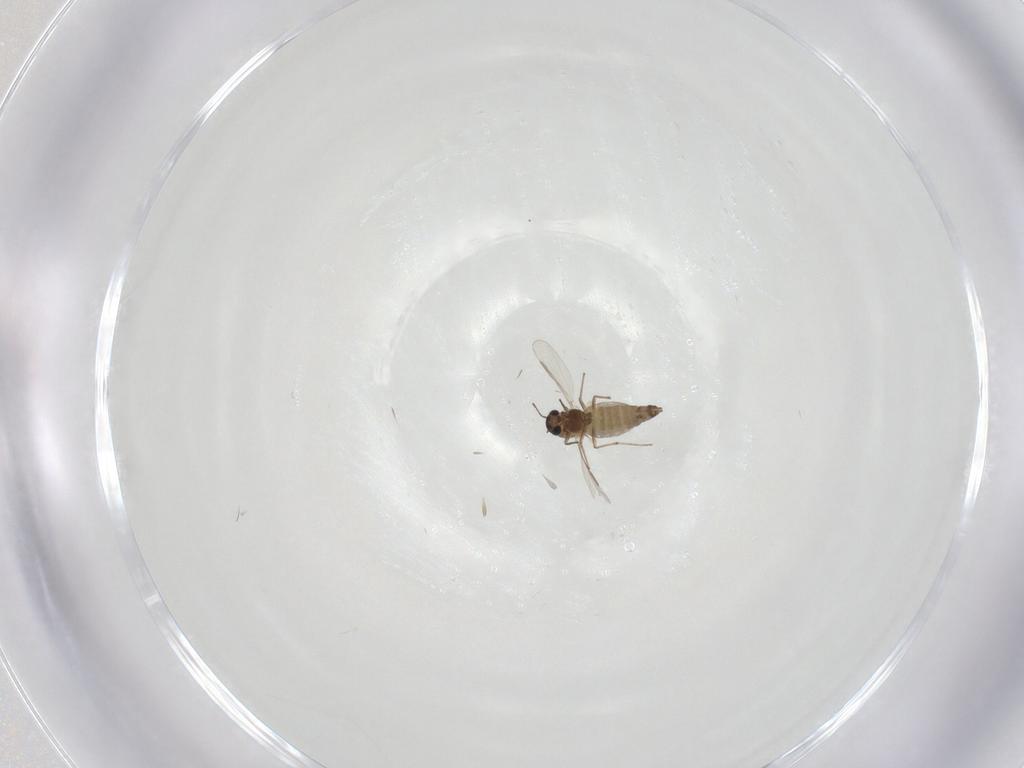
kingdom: Animalia
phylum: Arthropoda
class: Insecta
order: Diptera
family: Chironomidae
